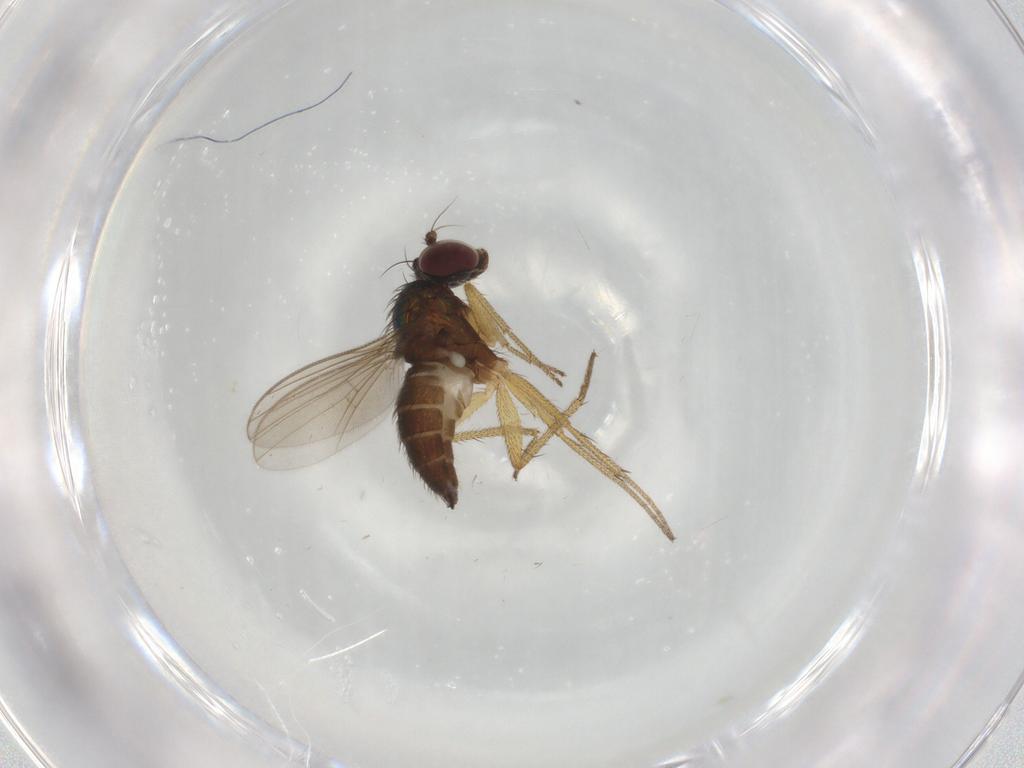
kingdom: Animalia
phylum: Arthropoda
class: Insecta
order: Diptera
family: Dolichopodidae
